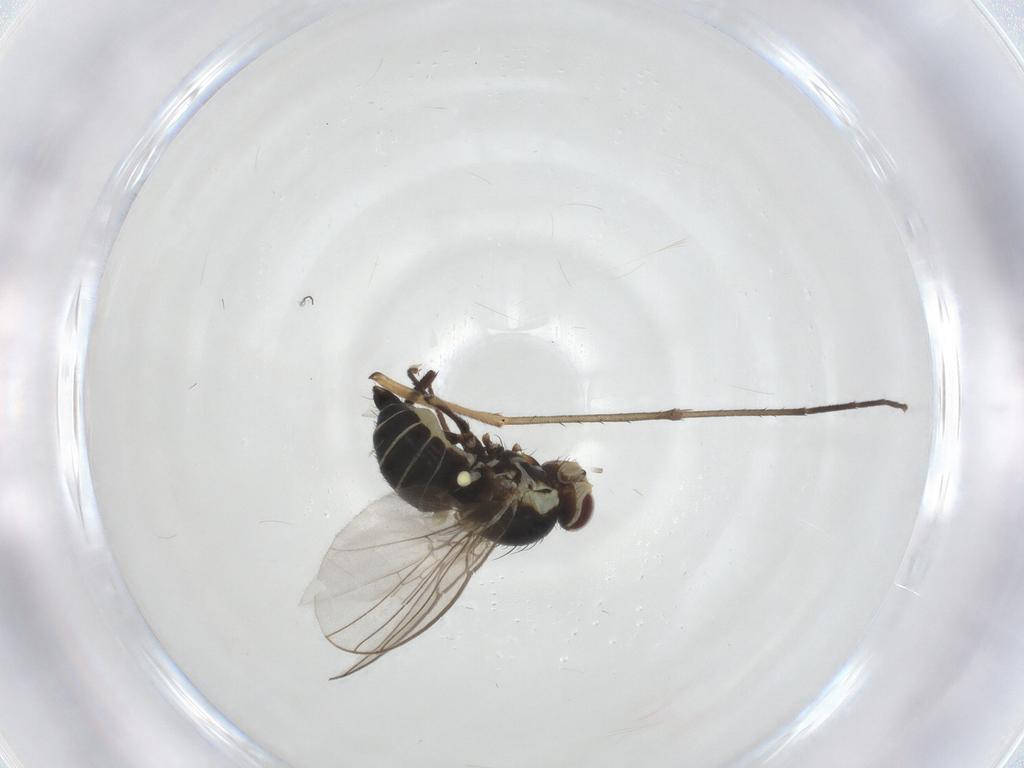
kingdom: Animalia
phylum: Arthropoda
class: Insecta
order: Diptera
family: Agromyzidae
